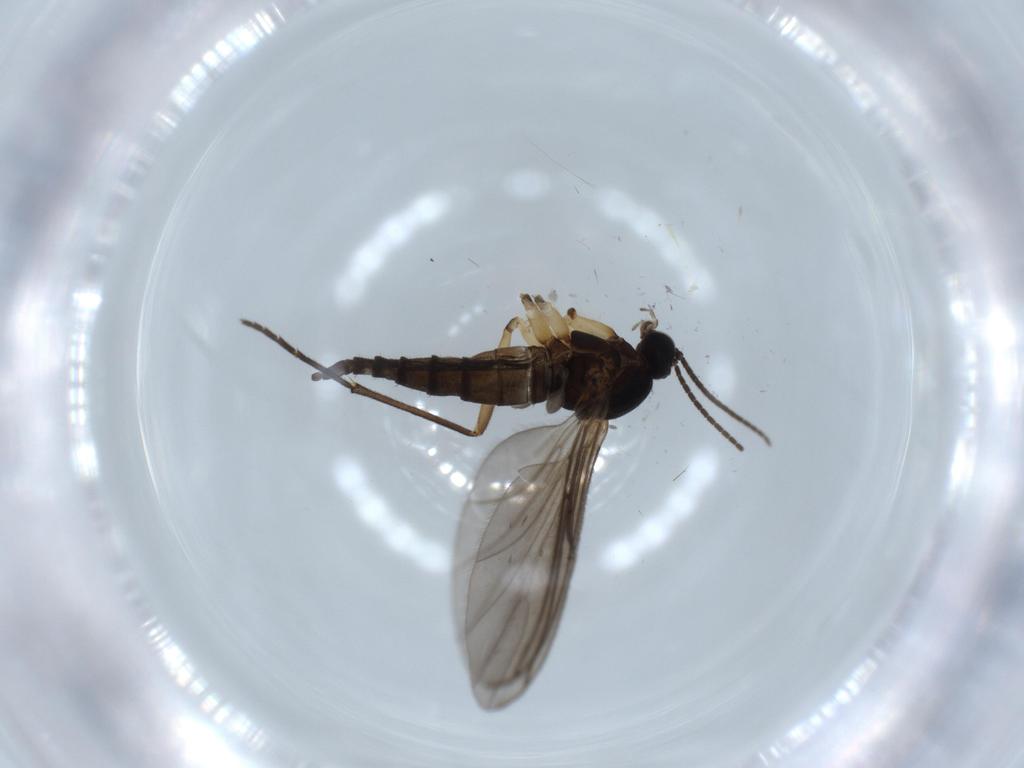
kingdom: Animalia
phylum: Arthropoda
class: Insecta
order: Diptera
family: Sciaridae
